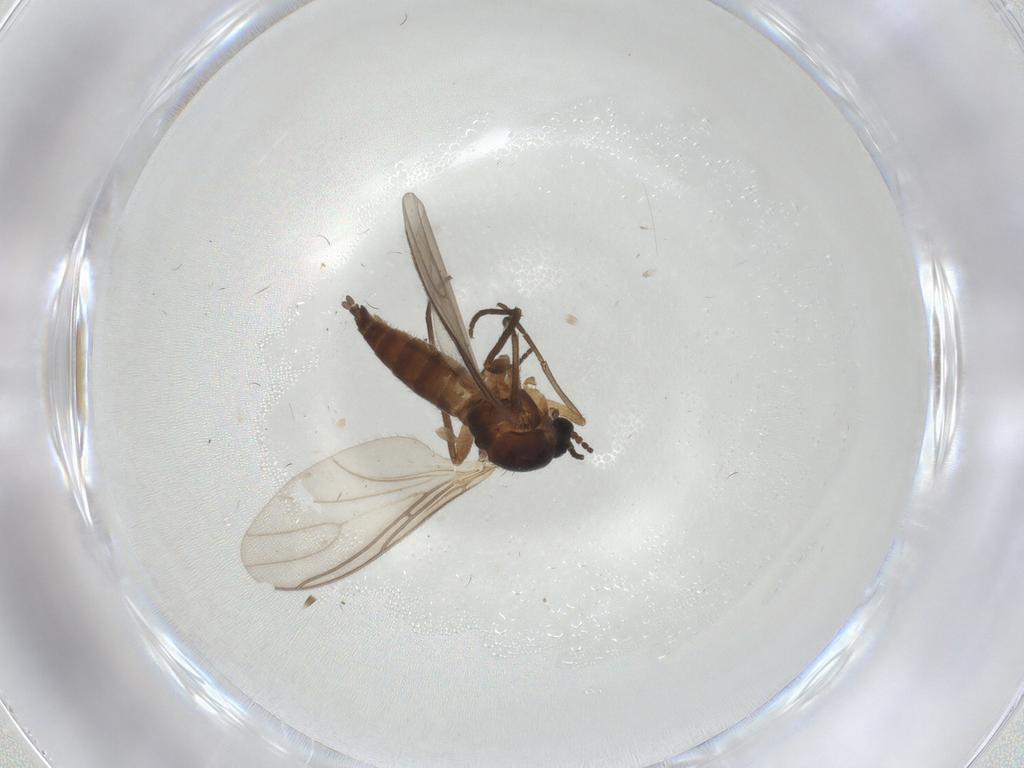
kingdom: Animalia
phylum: Arthropoda
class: Insecta
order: Diptera
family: Sciaridae
